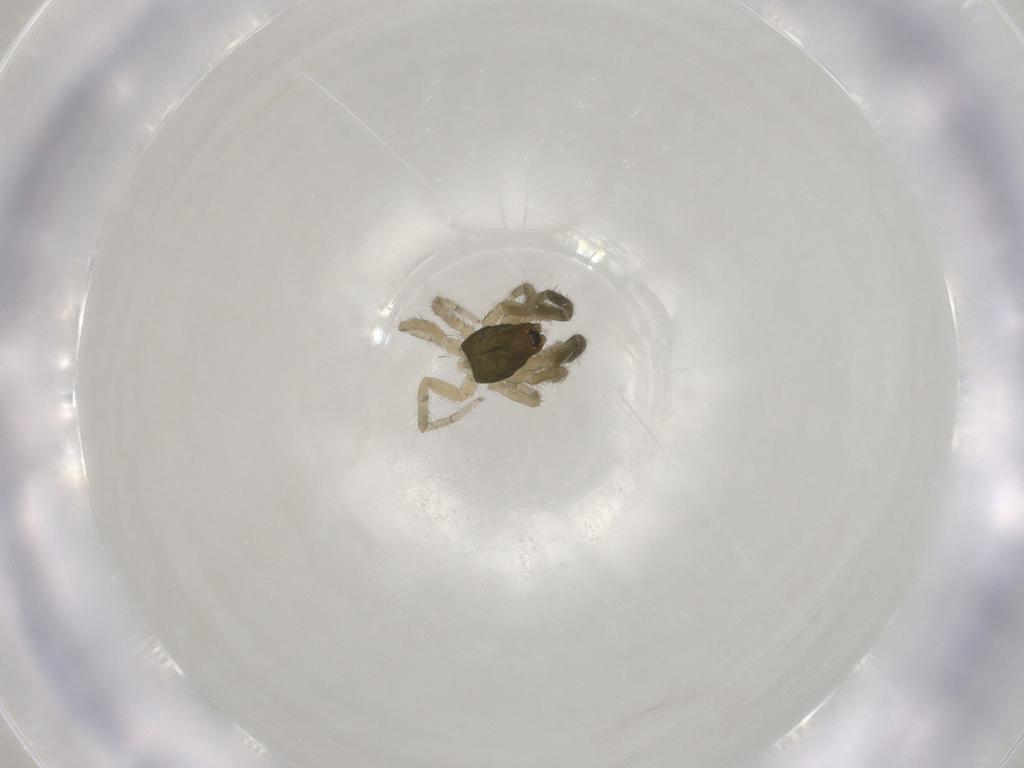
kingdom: Animalia
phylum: Arthropoda
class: Arachnida
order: Araneae
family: Gnaphosidae
